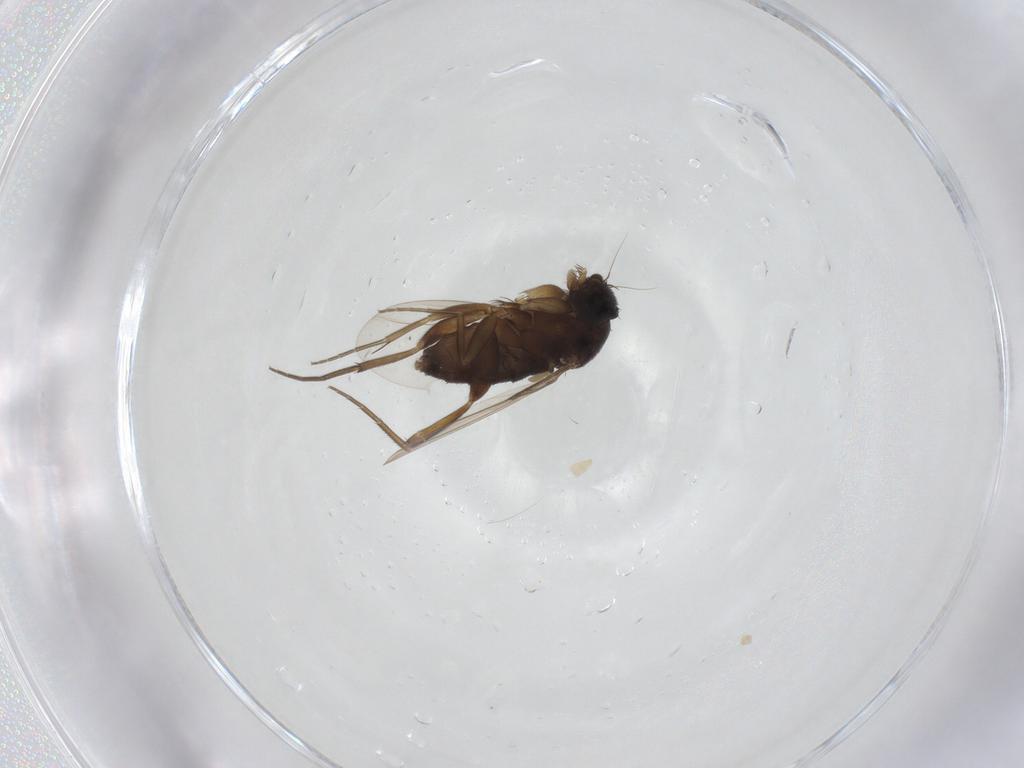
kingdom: Animalia
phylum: Arthropoda
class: Insecta
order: Diptera
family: Phoridae
